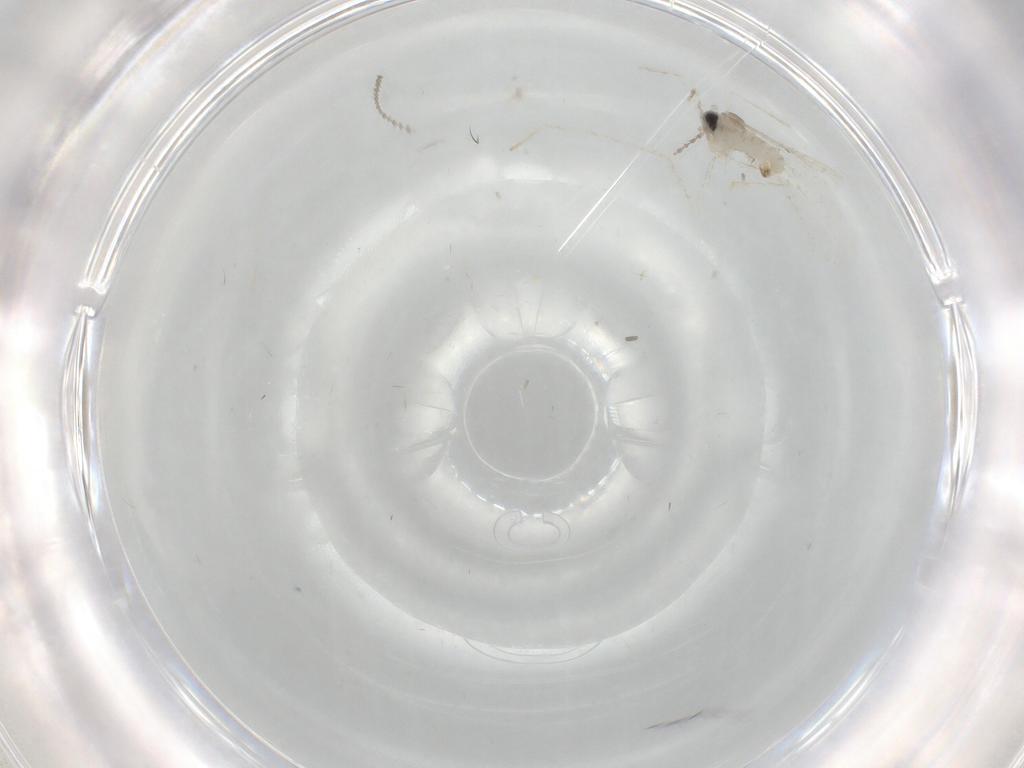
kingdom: Animalia
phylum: Arthropoda
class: Insecta
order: Diptera
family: Cecidomyiidae
